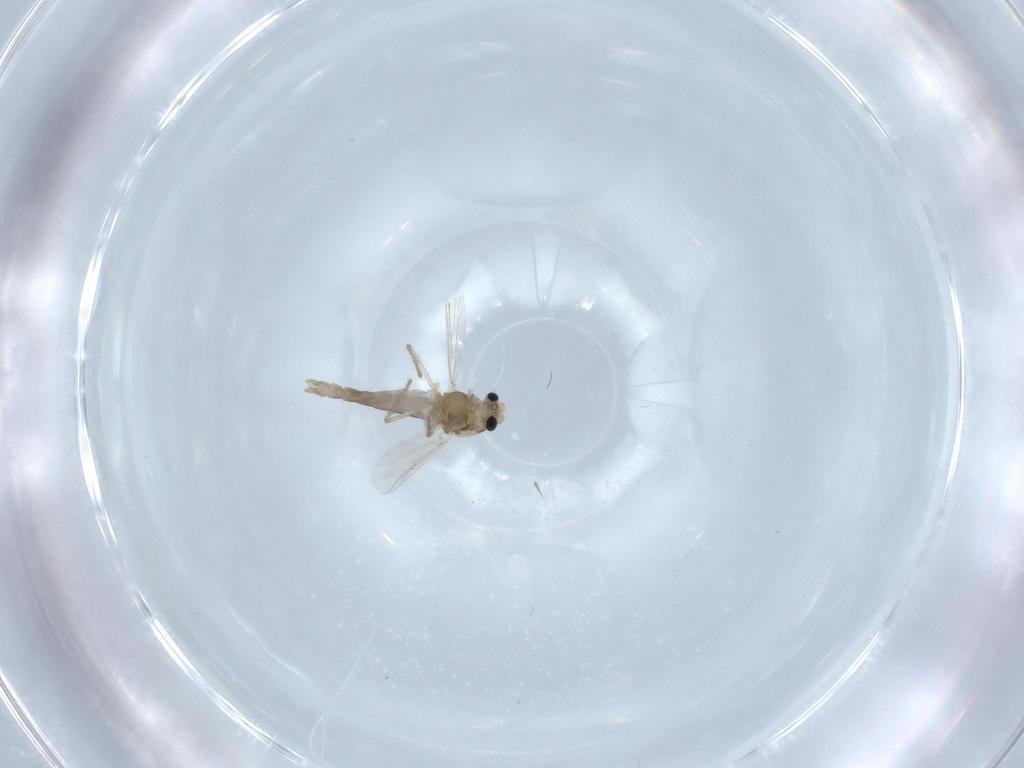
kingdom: Animalia
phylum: Arthropoda
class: Insecta
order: Diptera
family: Chironomidae
